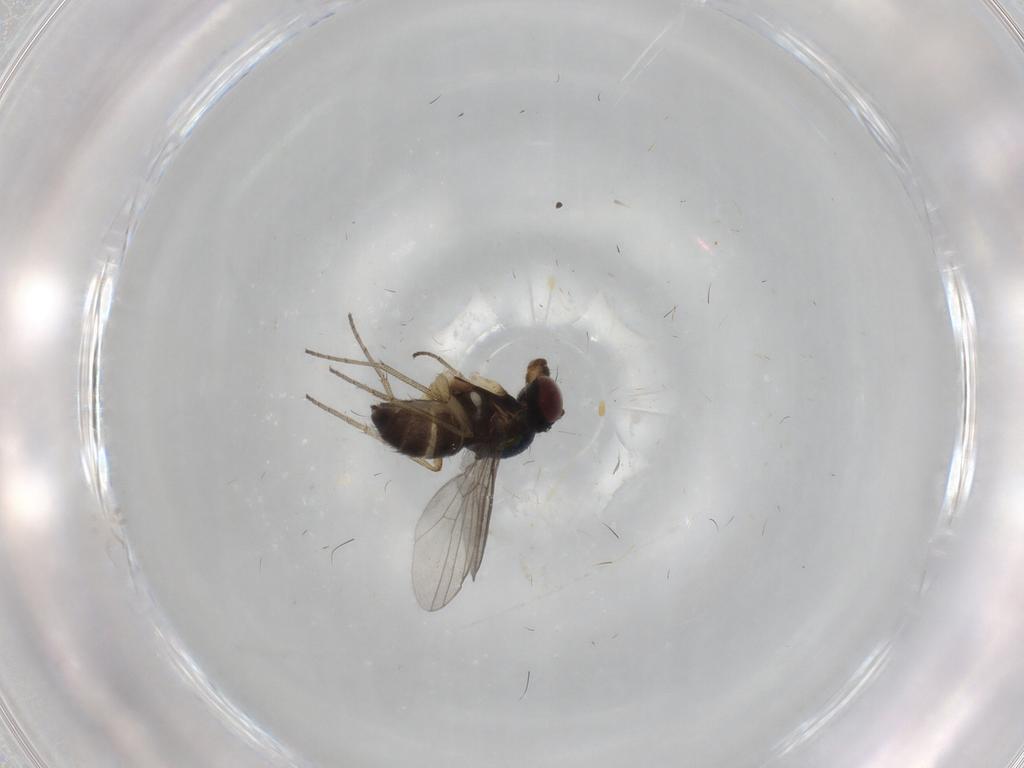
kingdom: Animalia
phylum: Arthropoda
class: Insecta
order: Diptera
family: Dolichopodidae
